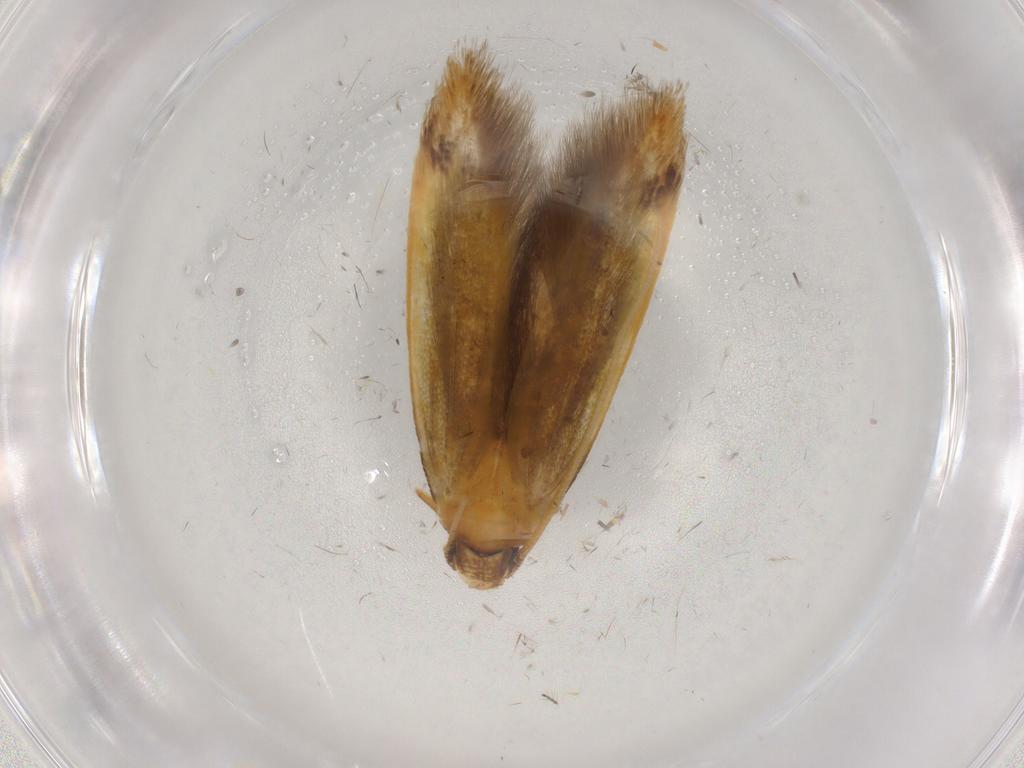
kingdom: Animalia
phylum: Arthropoda
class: Insecta
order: Lepidoptera
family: Tineidae
